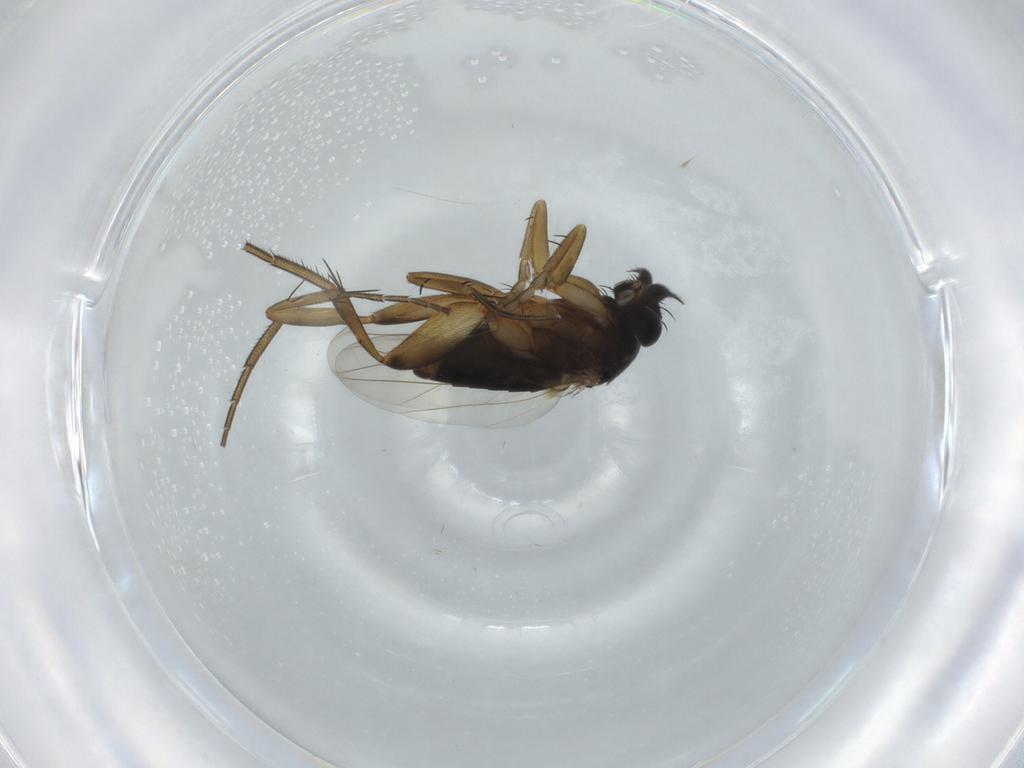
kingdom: Animalia
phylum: Arthropoda
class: Insecta
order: Diptera
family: Phoridae
